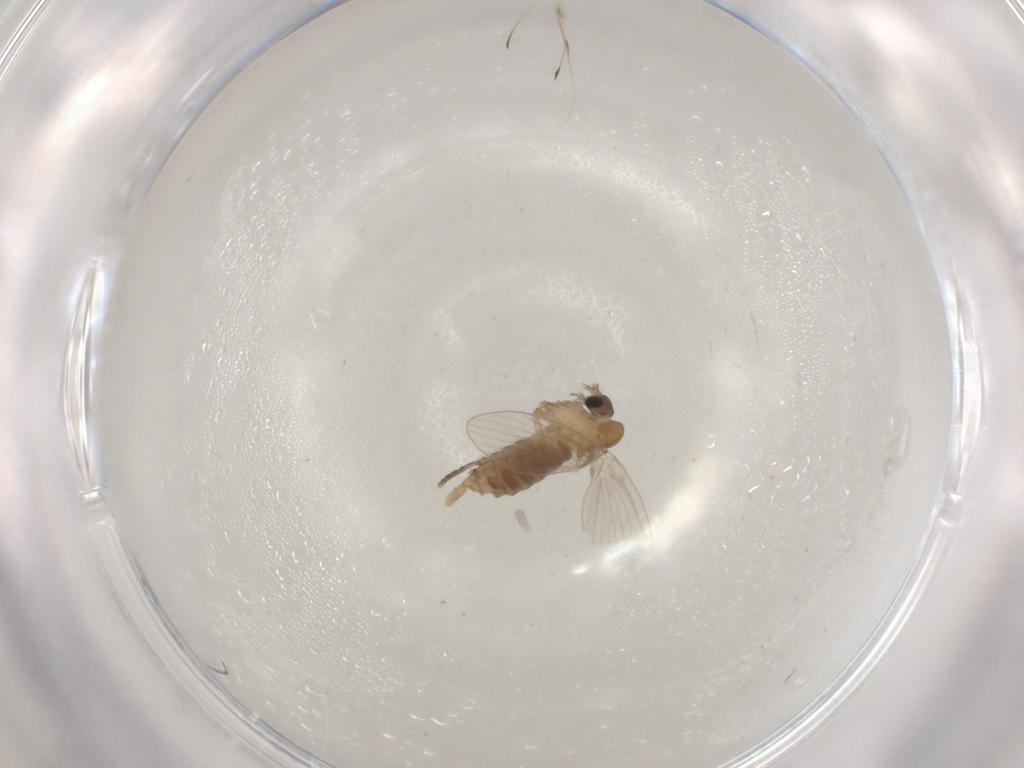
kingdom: Animalia
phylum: Arthropoda
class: Insecta
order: Diptera
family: Psychodidae
